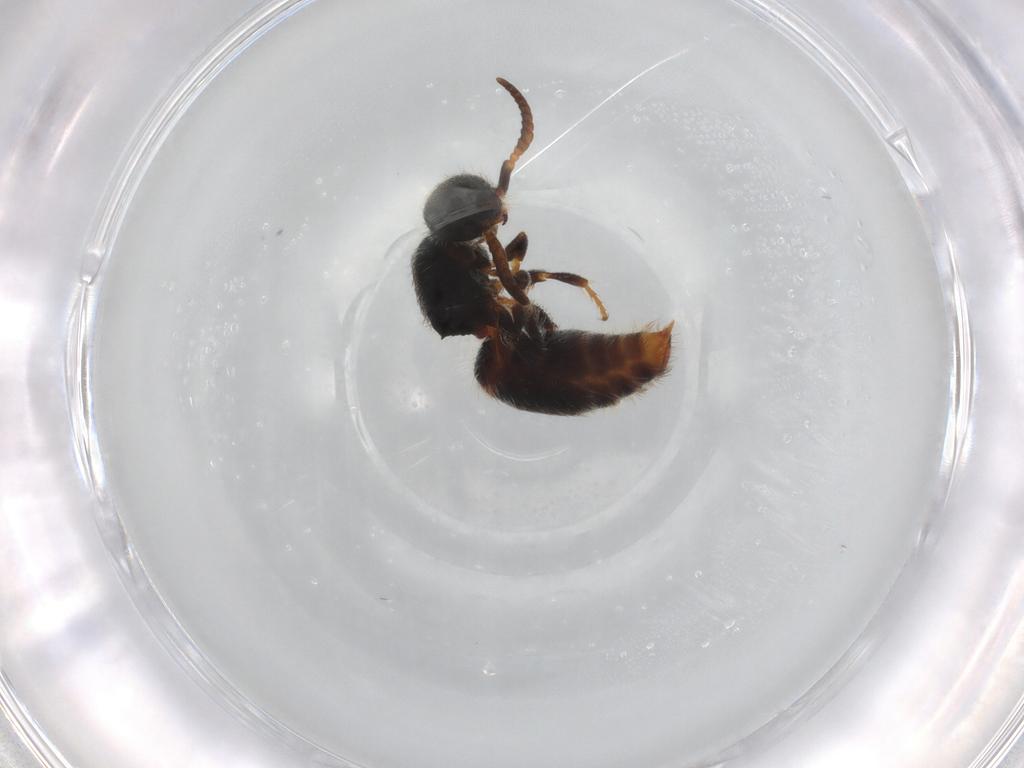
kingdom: Animalia
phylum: Arthropoda
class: Insecta
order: Hymenoptera
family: Mutillidae
